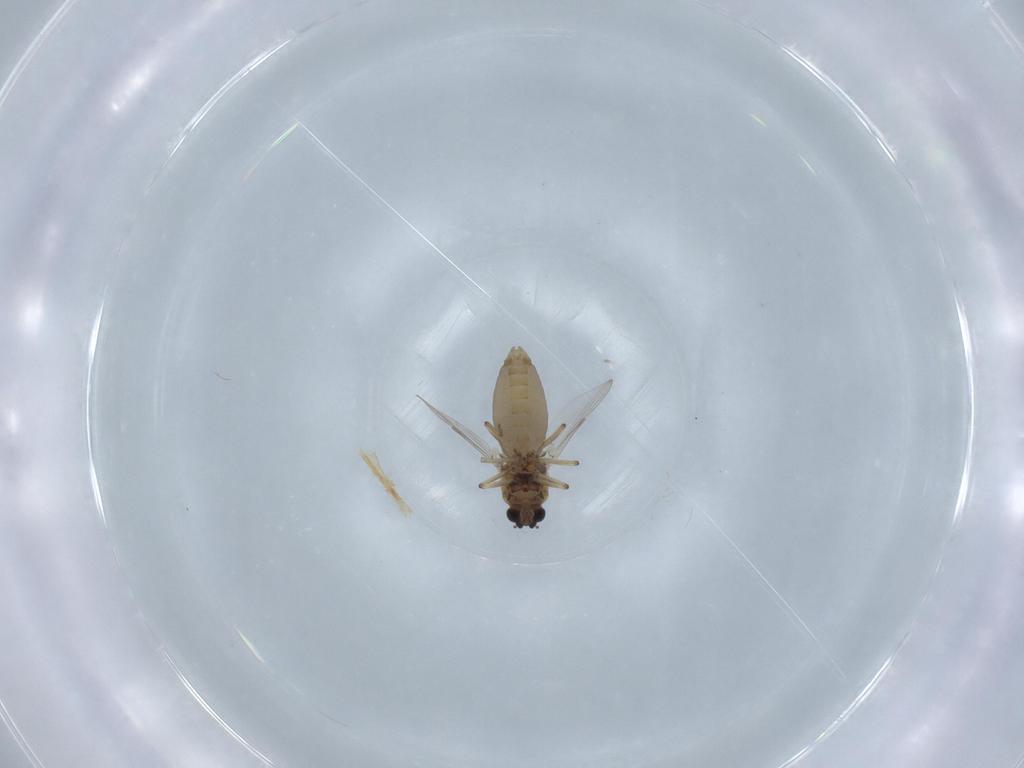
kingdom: Animalia
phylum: Arthropoda
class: Insecta
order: Diptera
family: Ceratopogonidae
